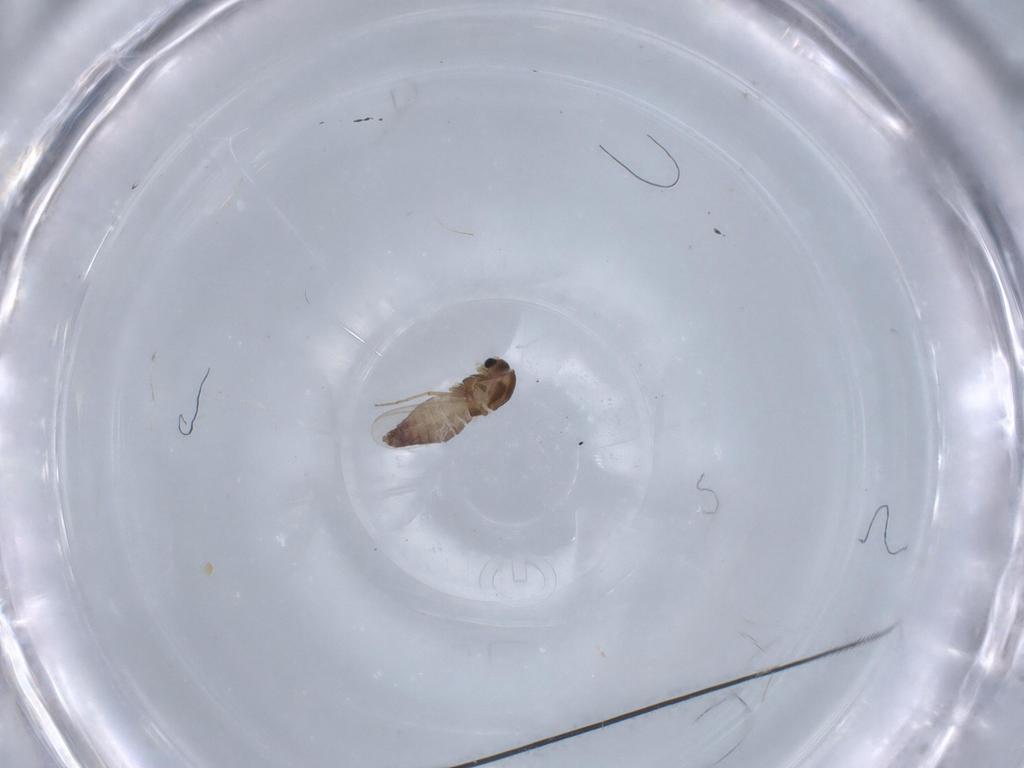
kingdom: Animalia
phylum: Arthropoda
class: Insecta
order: Diptera
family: Chironomidae
